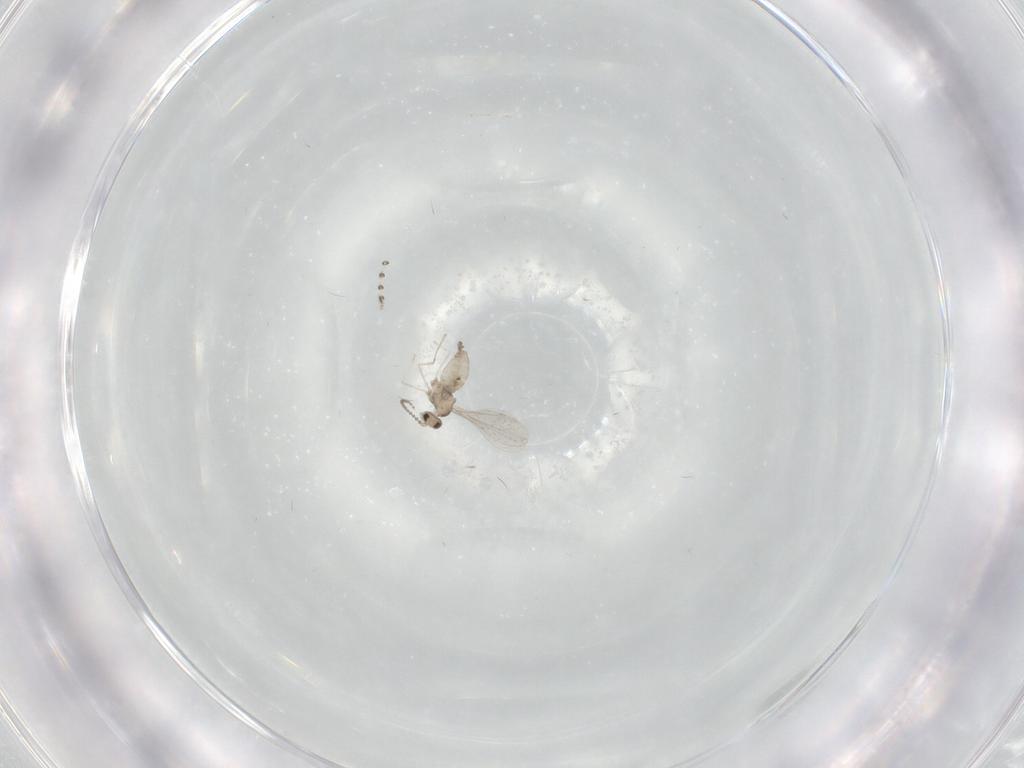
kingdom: Animalia
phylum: Arthropoda
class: Insecta
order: Diptera
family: Cecidomyiidae
